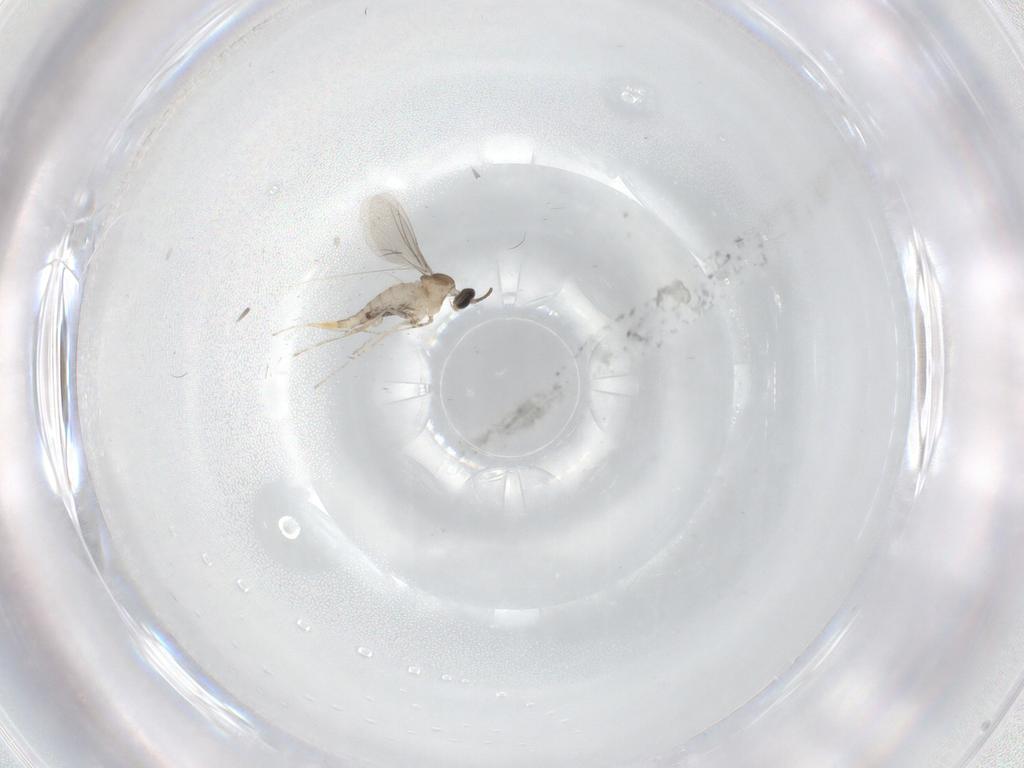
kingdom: Animalia
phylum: Arthropoda
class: Insecta
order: Diptera
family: Cecidomyiidae
